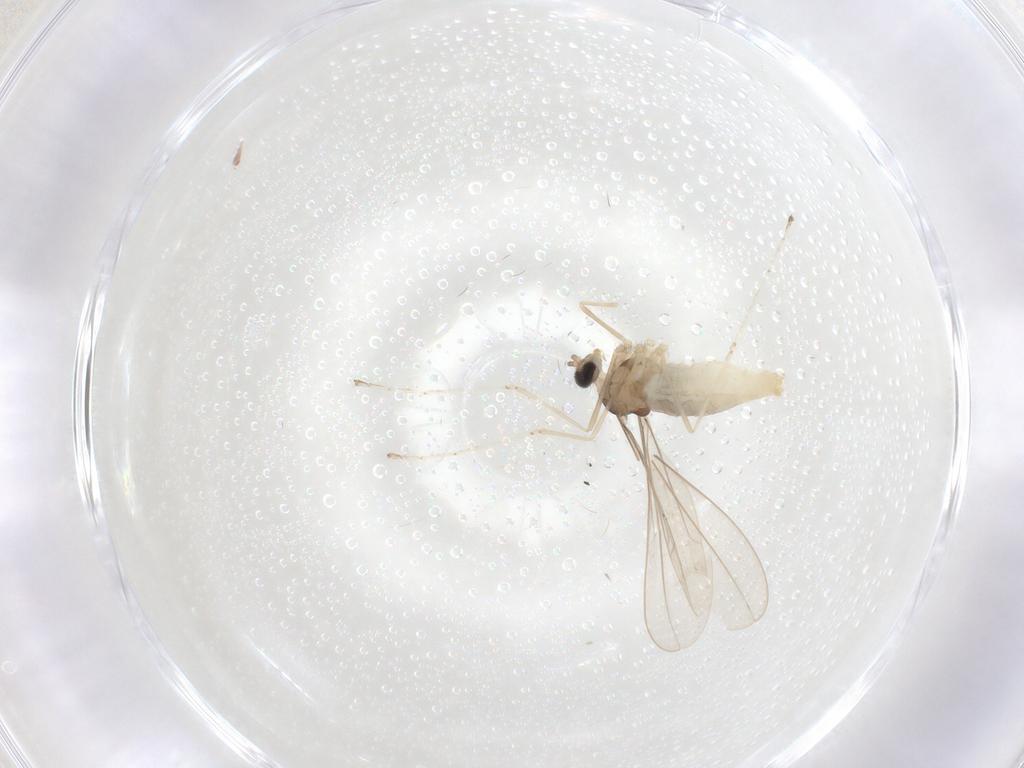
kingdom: Animalia
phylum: Arthropoda
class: Insecta
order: Diptera
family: Cecidomyiidae
